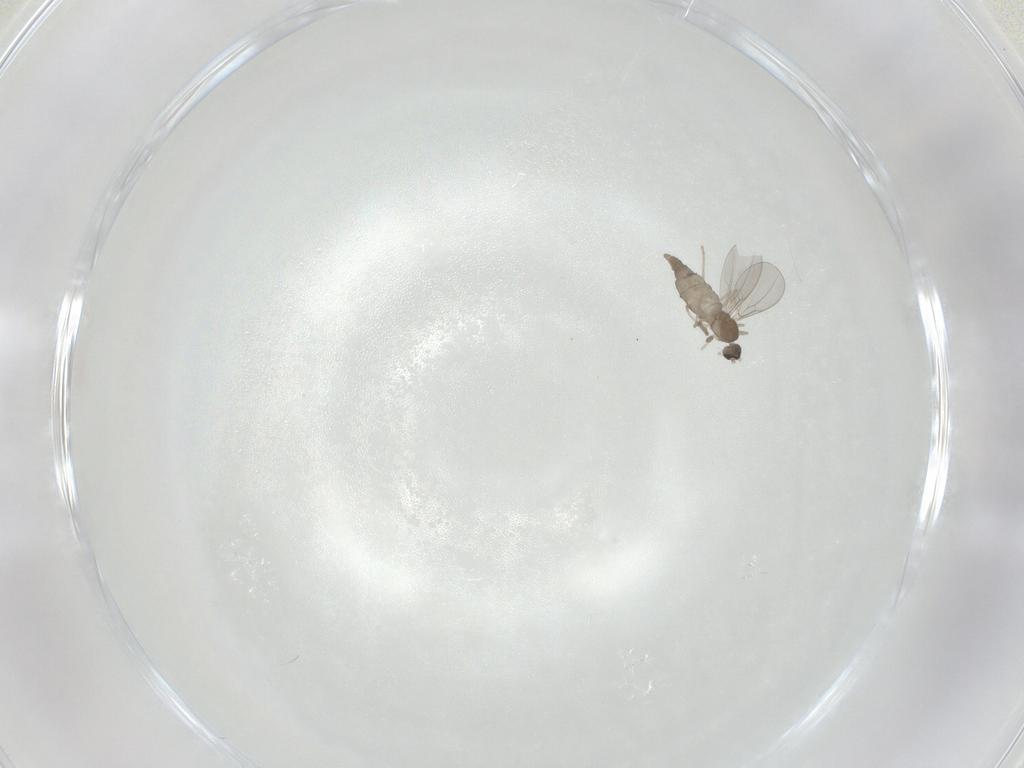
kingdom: Animalia
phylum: Arthropoda
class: Insecta
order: Diptera
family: Cecidomyiidae
